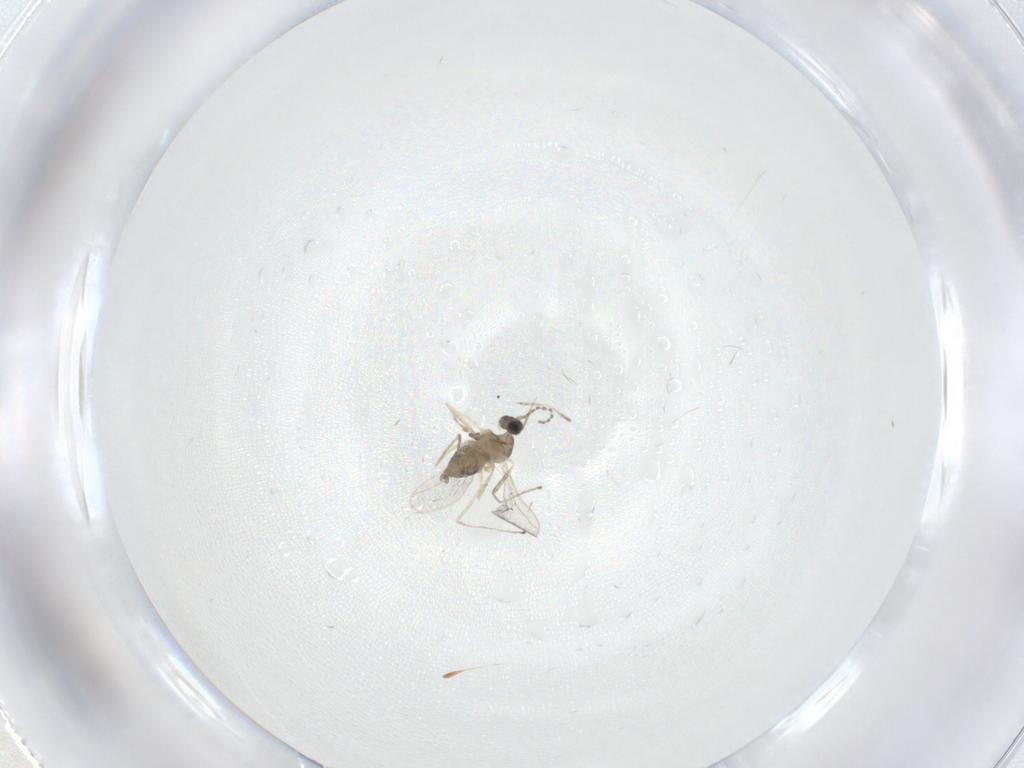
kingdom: Animalia
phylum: Arthropoda
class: Insecta
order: Diptera
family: Cecidomyiidae
